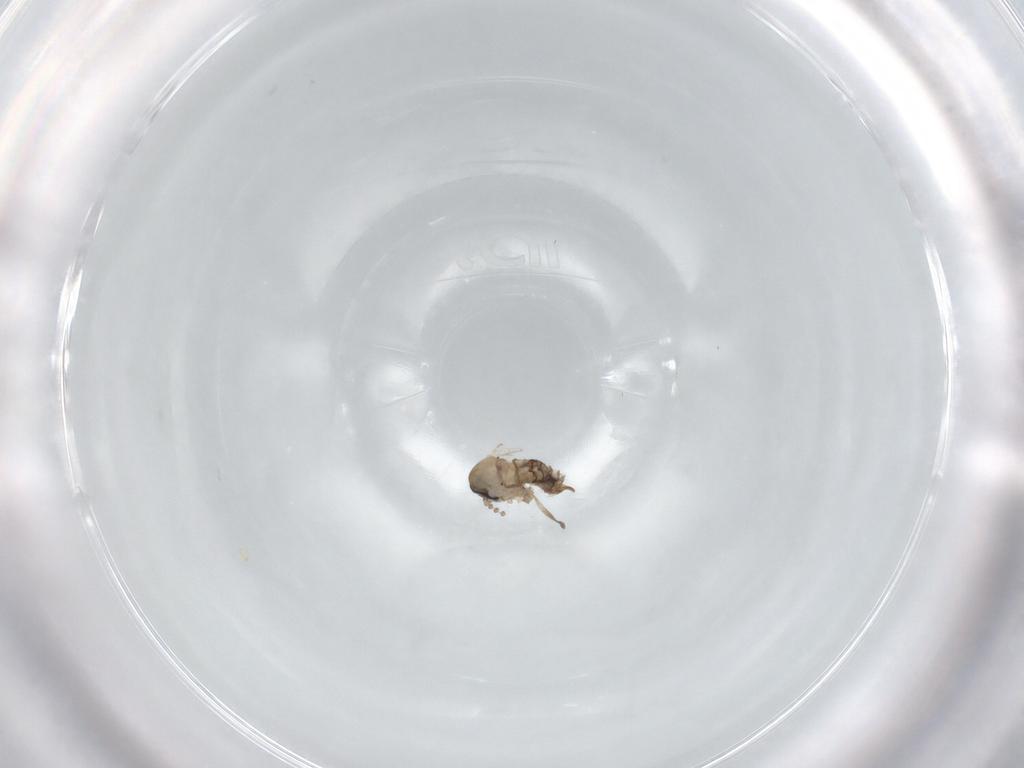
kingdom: Animalia
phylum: Arthropoda
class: Insecta
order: Diptera
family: Psychodidae
